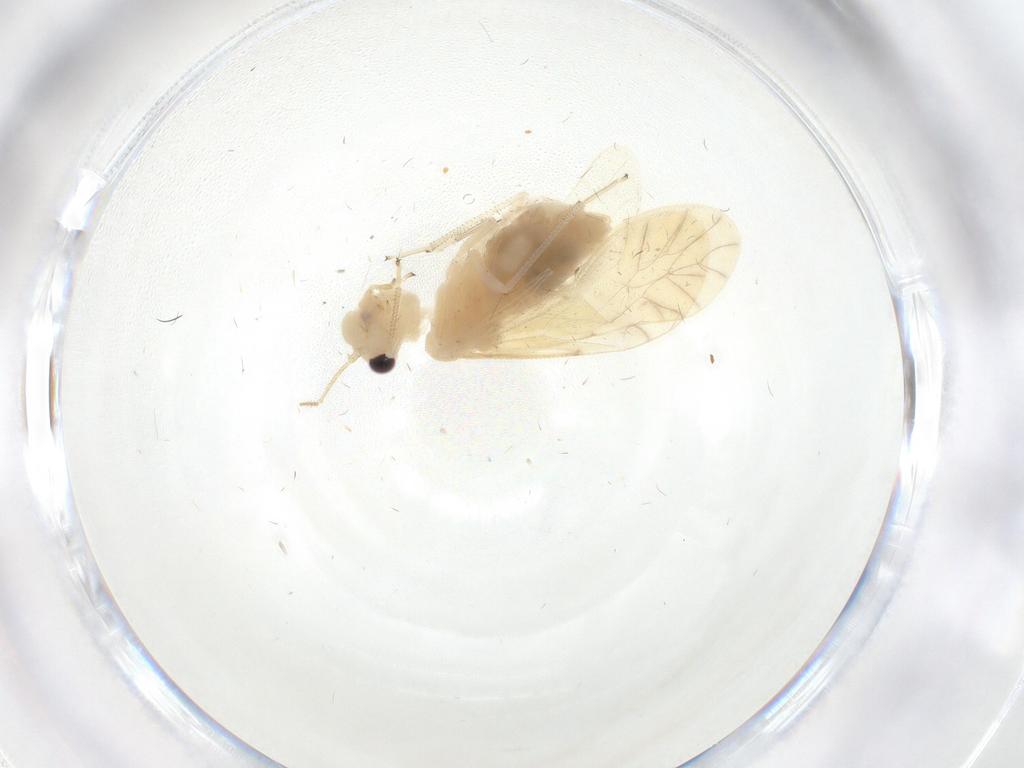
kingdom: Animalia
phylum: Arthropoda
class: Insecta
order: Psocodea
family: Caeciliusidae
